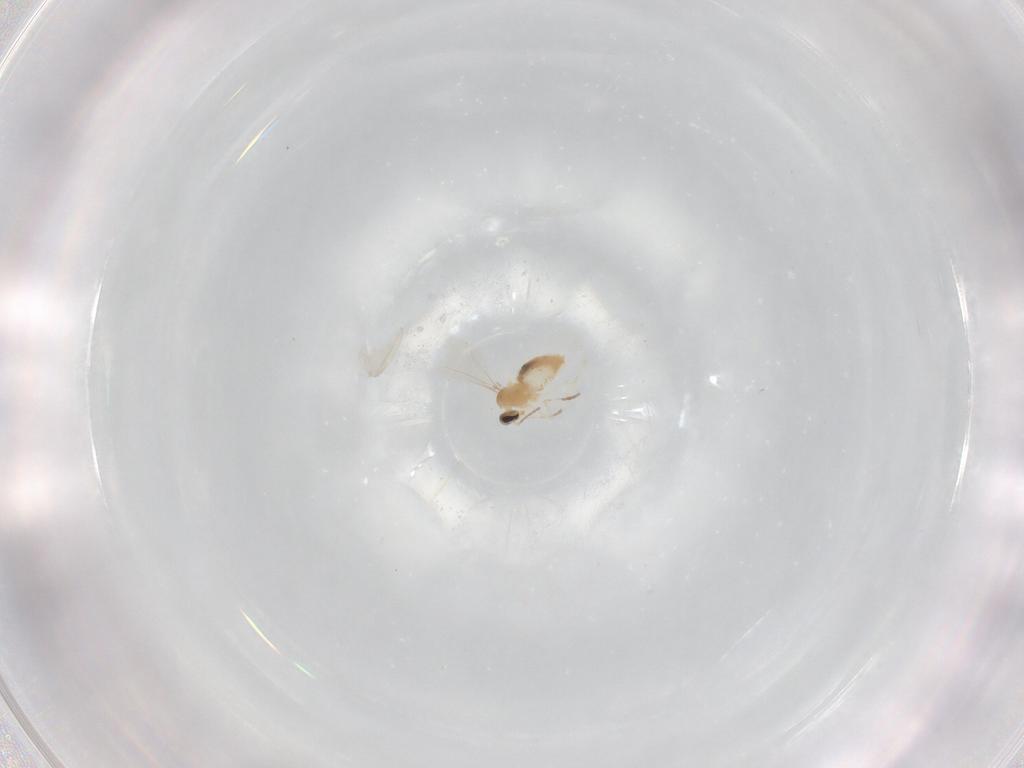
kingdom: Animalia
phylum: Arthropoda
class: Insecta
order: Diptera
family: Cecidomyiidae
